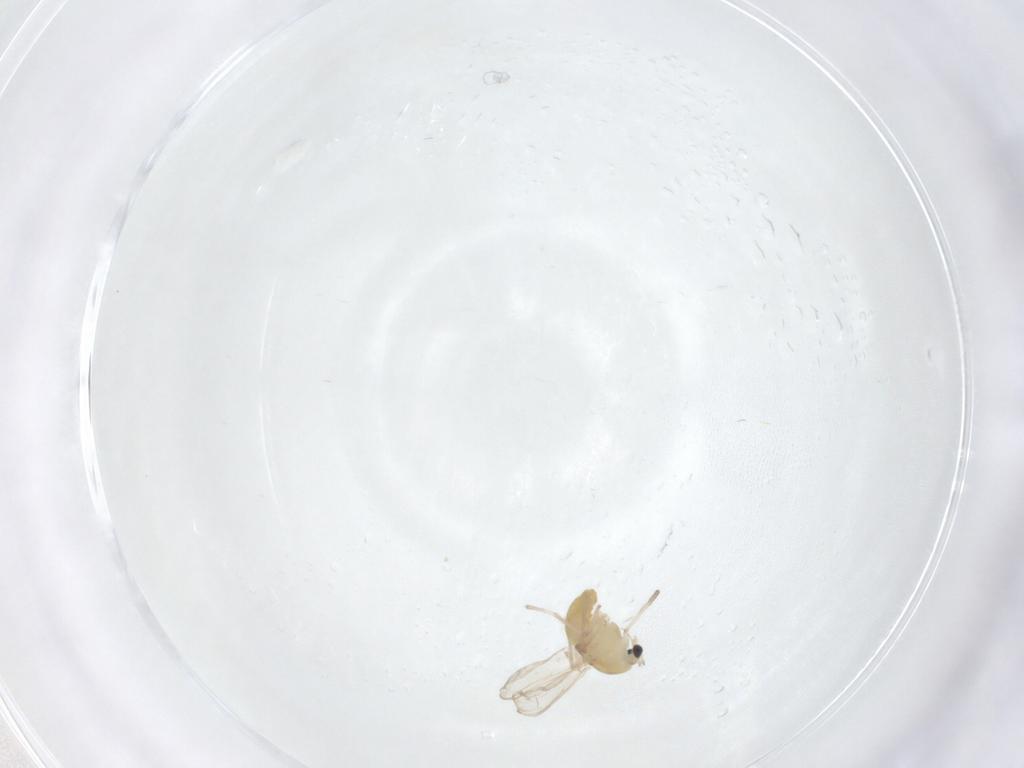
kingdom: Animalia
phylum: Arthropoda
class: Insecta
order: Diptera
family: Chironomidae
